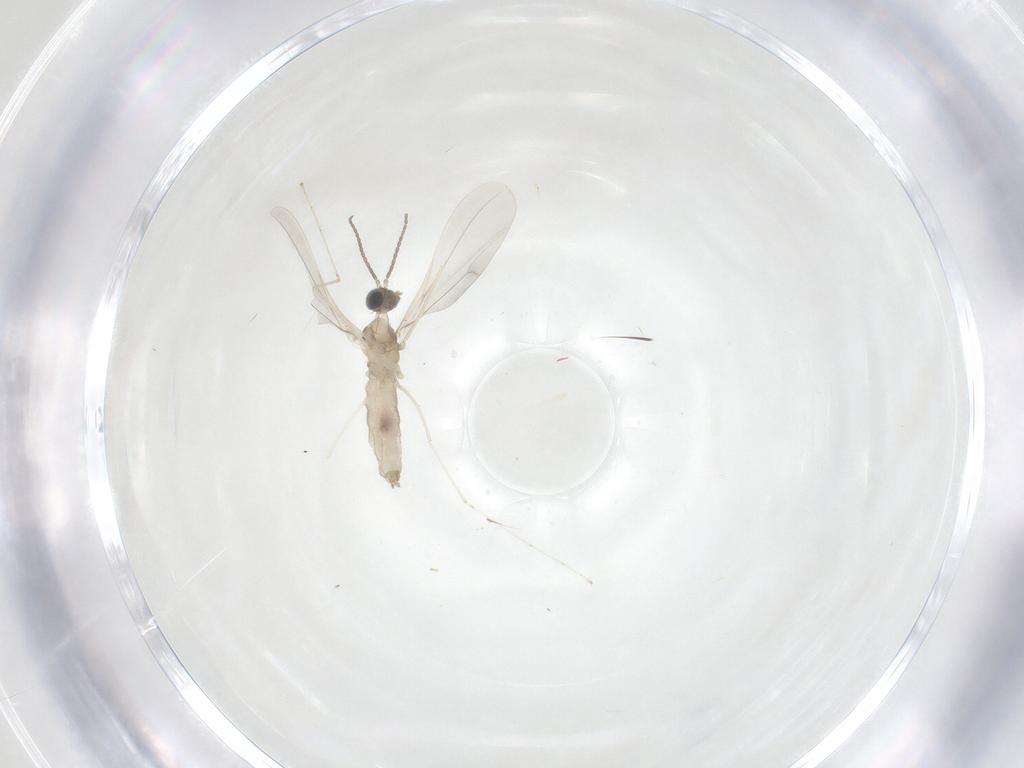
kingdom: Animalia
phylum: Arthropoda
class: Insecta
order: Diptera
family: Cecidomyiidae
